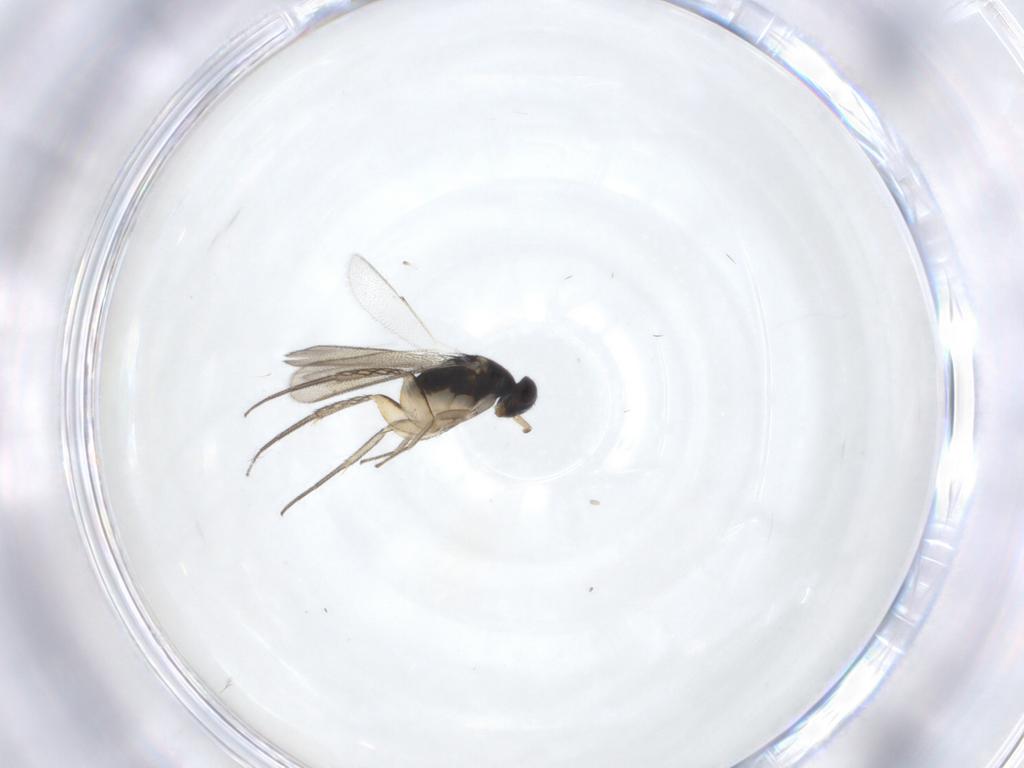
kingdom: Animalia
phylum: Arthropoda
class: Insecta
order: Hymenoptera
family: Eulophidae
